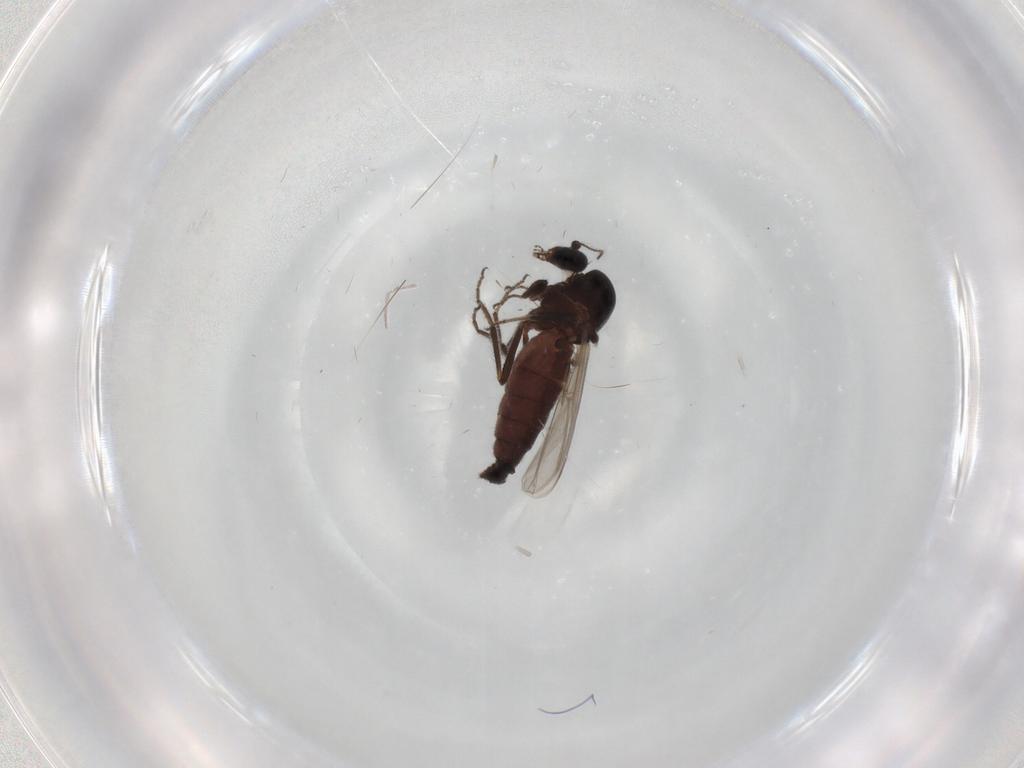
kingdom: Animalia
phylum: Arthropoda
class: Insecta
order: Diptera
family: Ceratopogonidae
